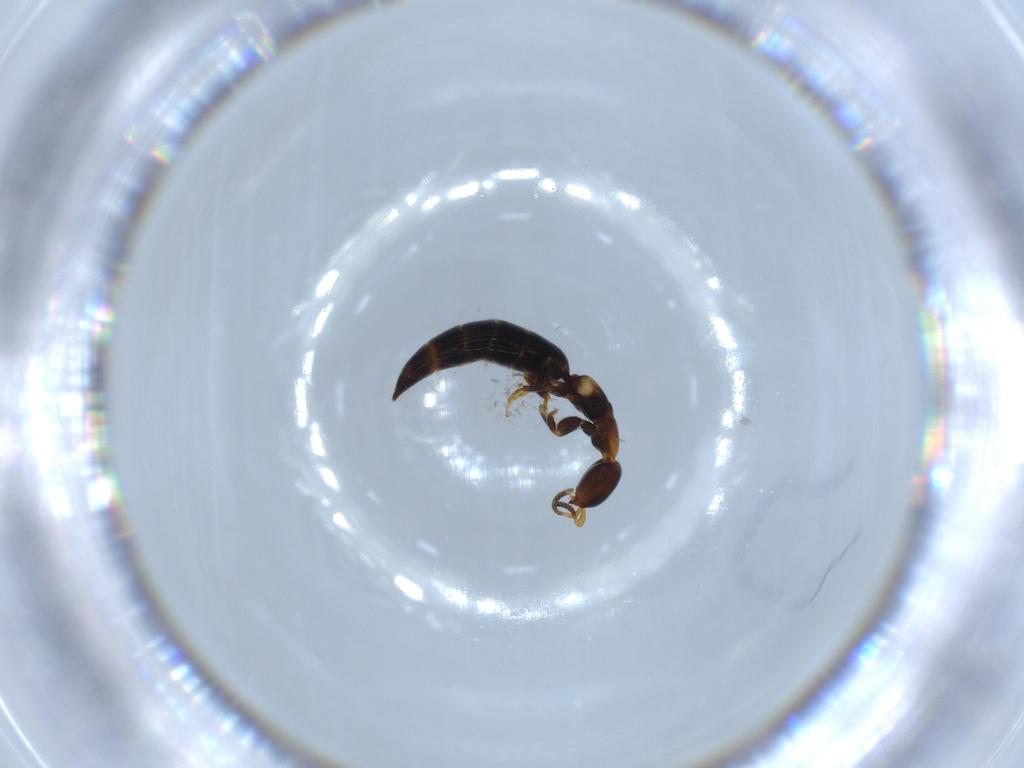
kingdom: Animalia
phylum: Arthropoda
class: Insecta
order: Hymenoptera
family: Bethylidae
